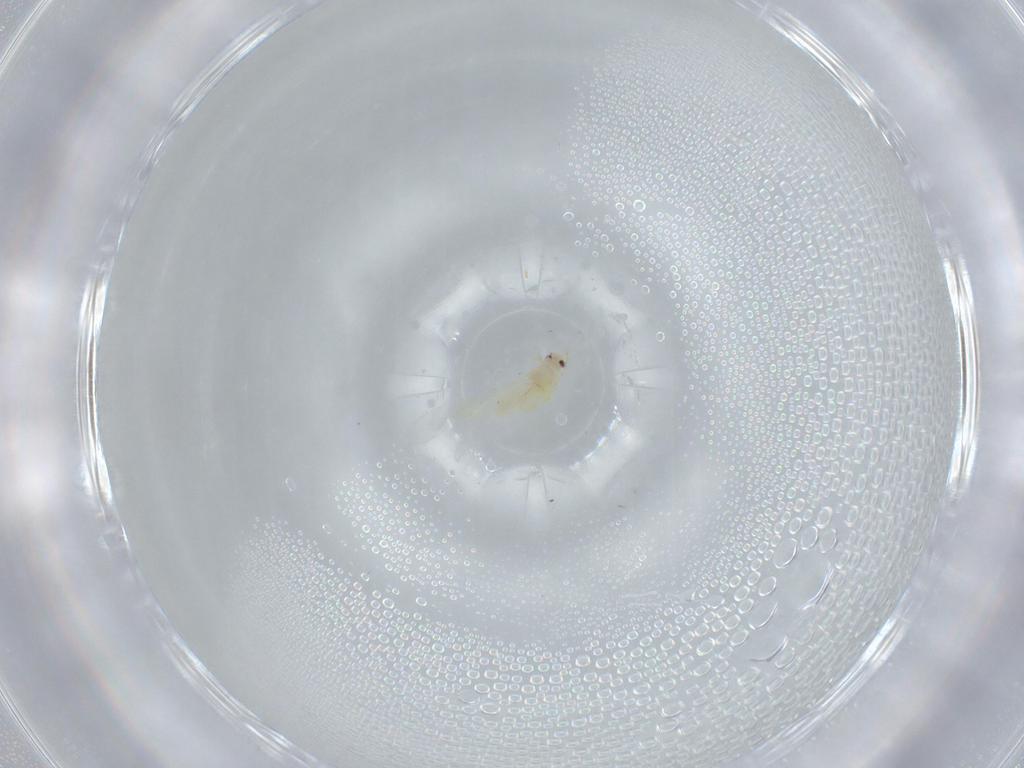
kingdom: Animalia
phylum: Arthropoda
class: Insecta
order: Hemiptera
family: Aleyrodidae
